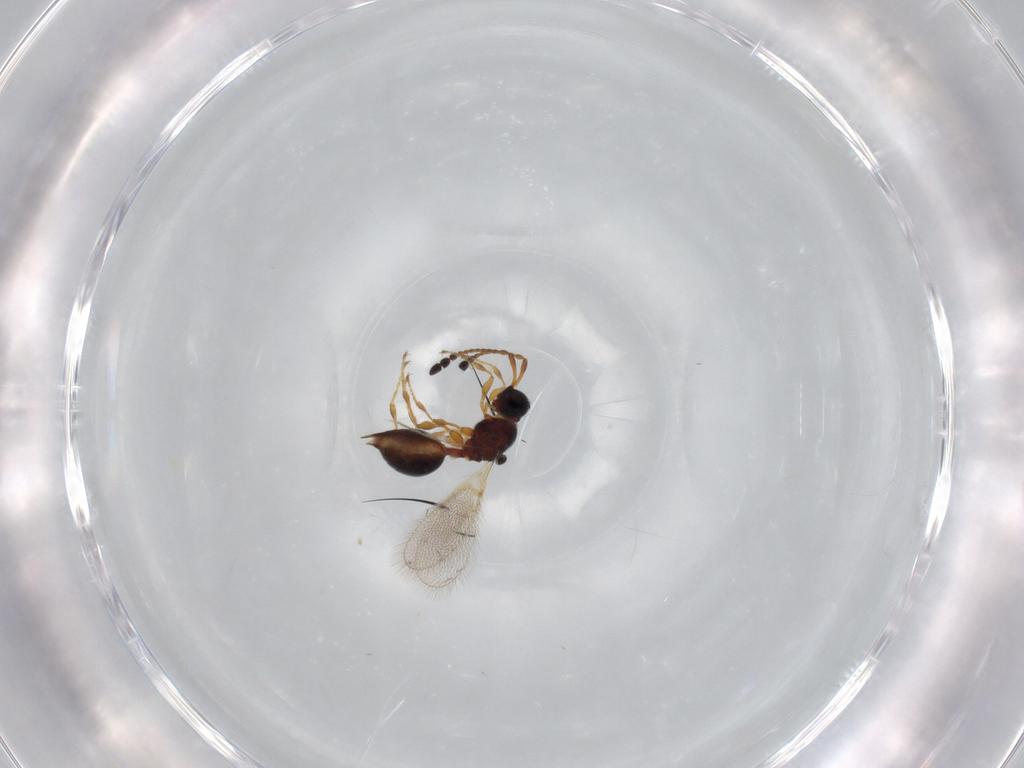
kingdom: Animalia
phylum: Arthropoda
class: Insecta
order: Hymenoptera
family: Diapriidae
